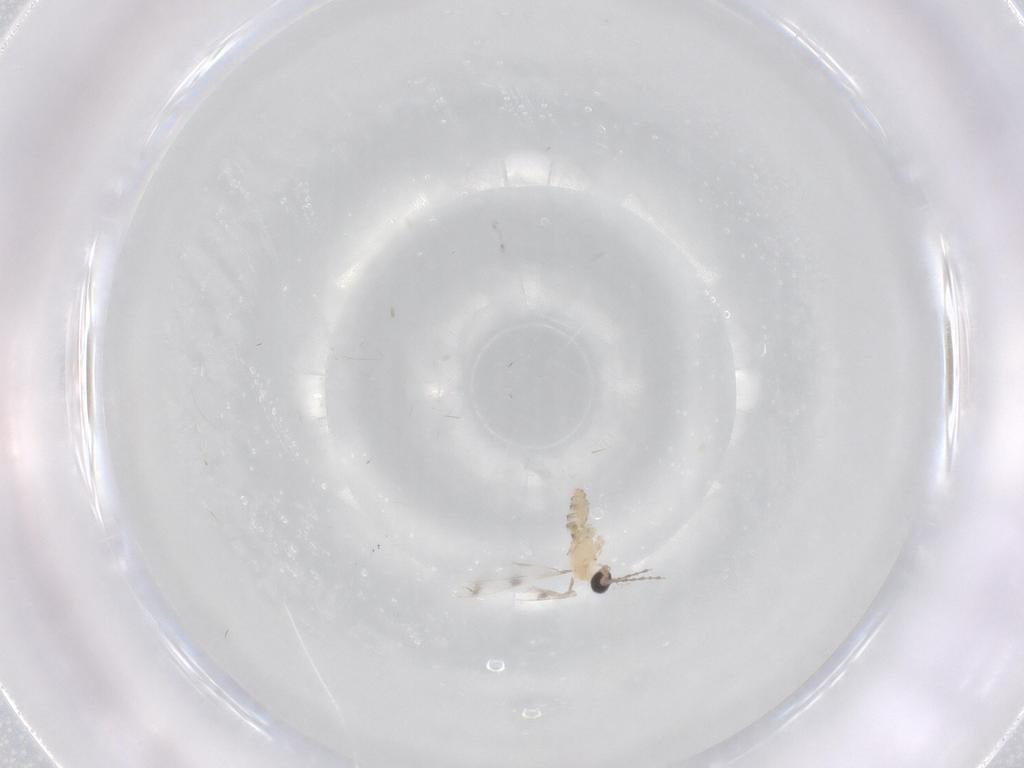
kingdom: Animalia
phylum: Arthropoda
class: Insecta
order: Diptera
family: Cecidomyiidae
